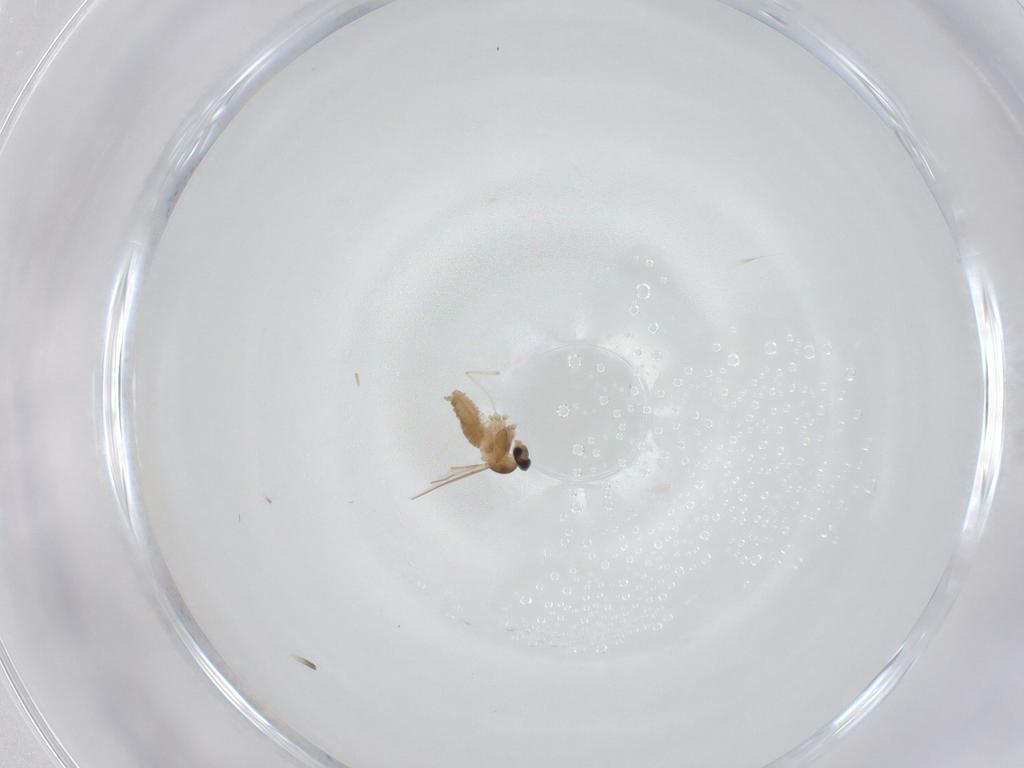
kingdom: Animalia
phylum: Arthropoda
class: Insecta
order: Diptera
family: Cecidomyiidae
